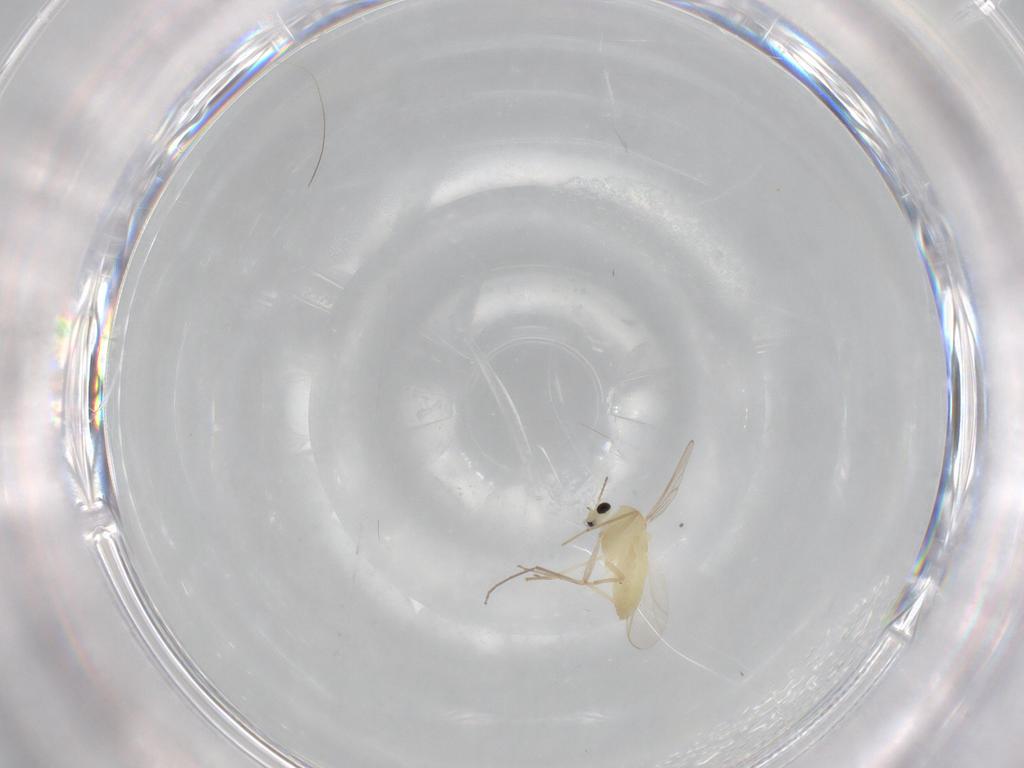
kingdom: Animalia
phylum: Arthropoda
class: Insecta
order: Diptera
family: Chironomidae
